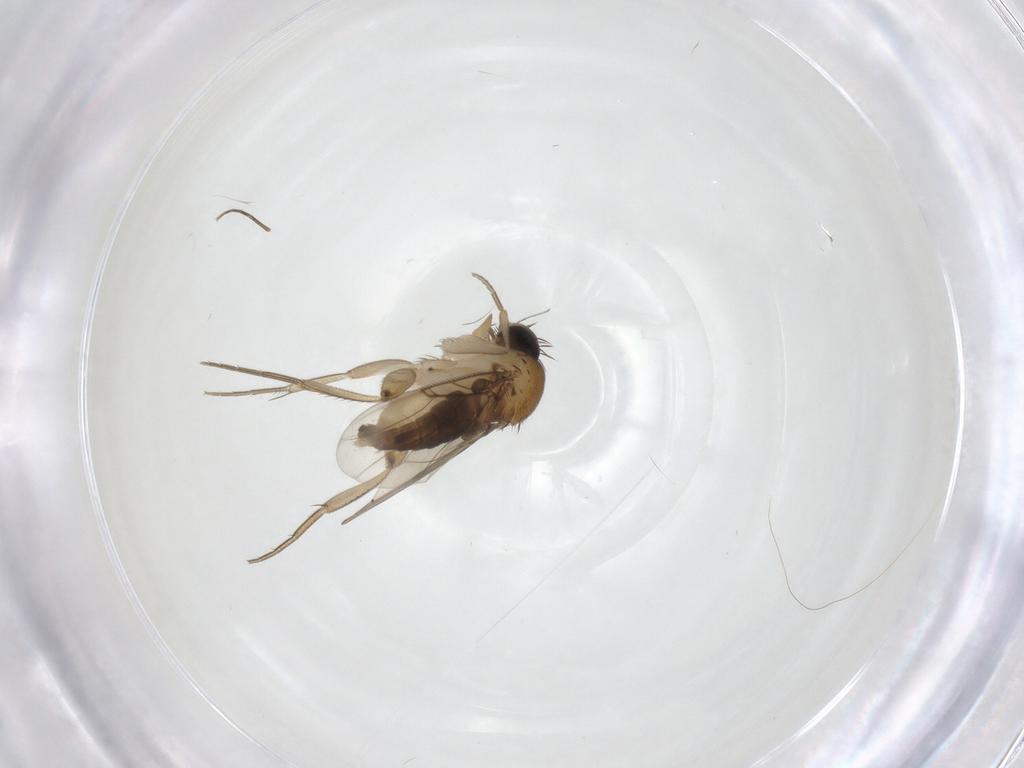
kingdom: Animalia
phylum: Arthropoda
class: Insecta
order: Diptera
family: Phoridae
